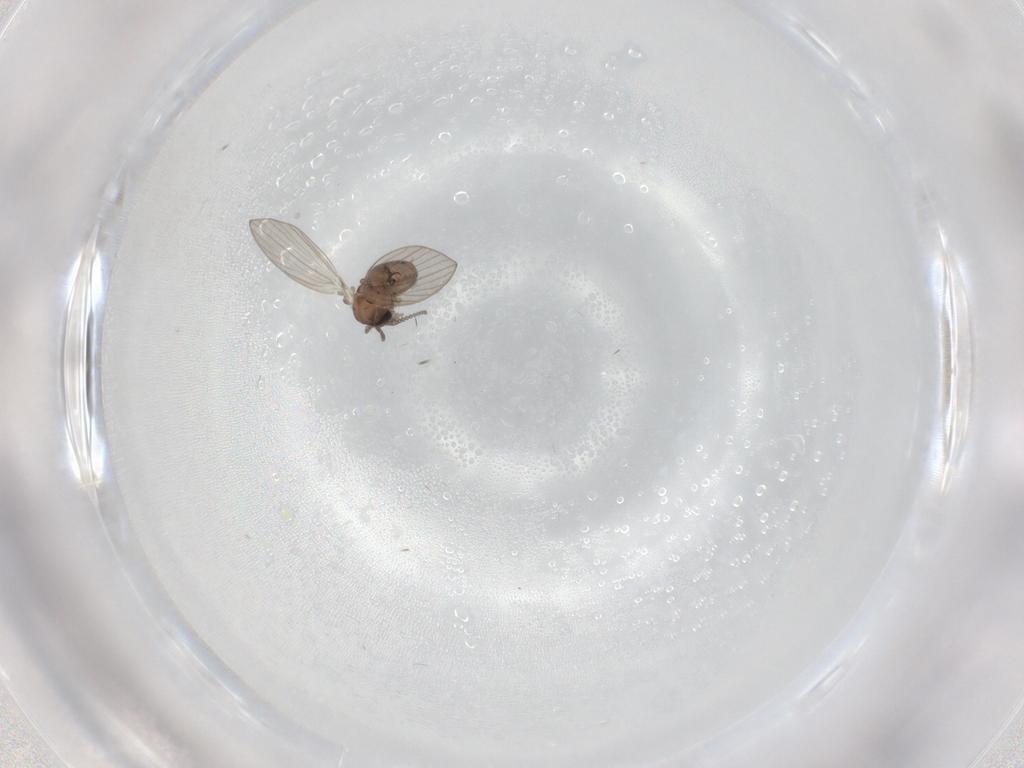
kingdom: Animalia
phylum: Arthropoda
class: Insecta
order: Diptera
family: Psychodidae
